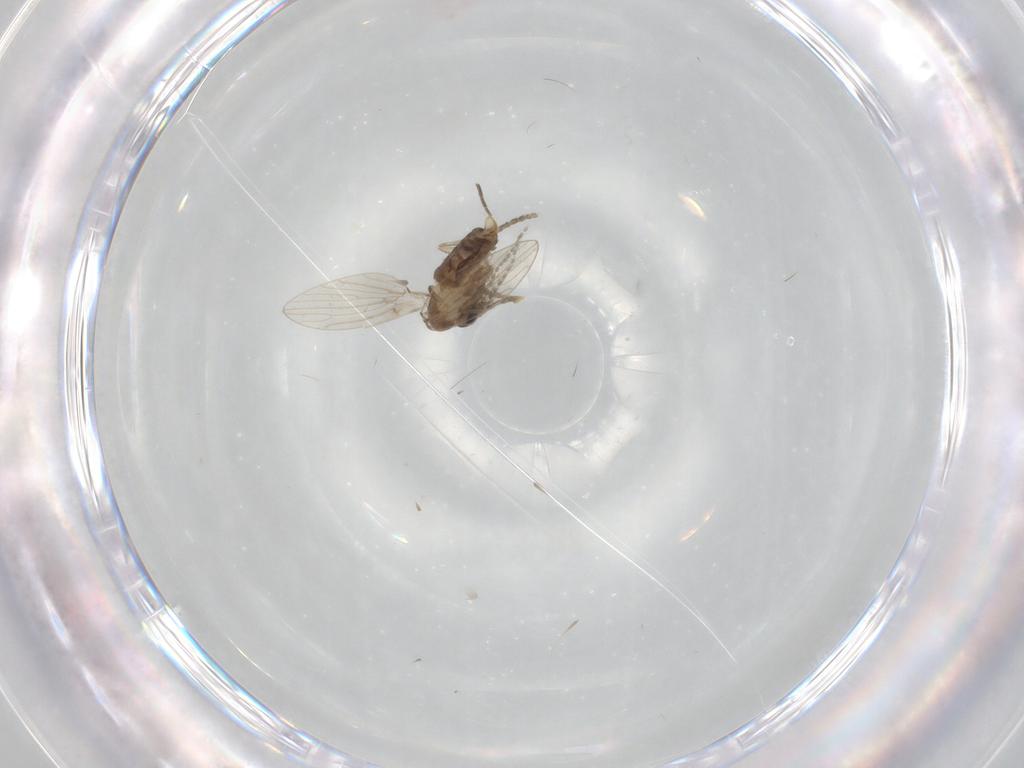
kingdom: Animalia
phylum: Arthropoda
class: Insecta
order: Diptera
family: Phoridae
